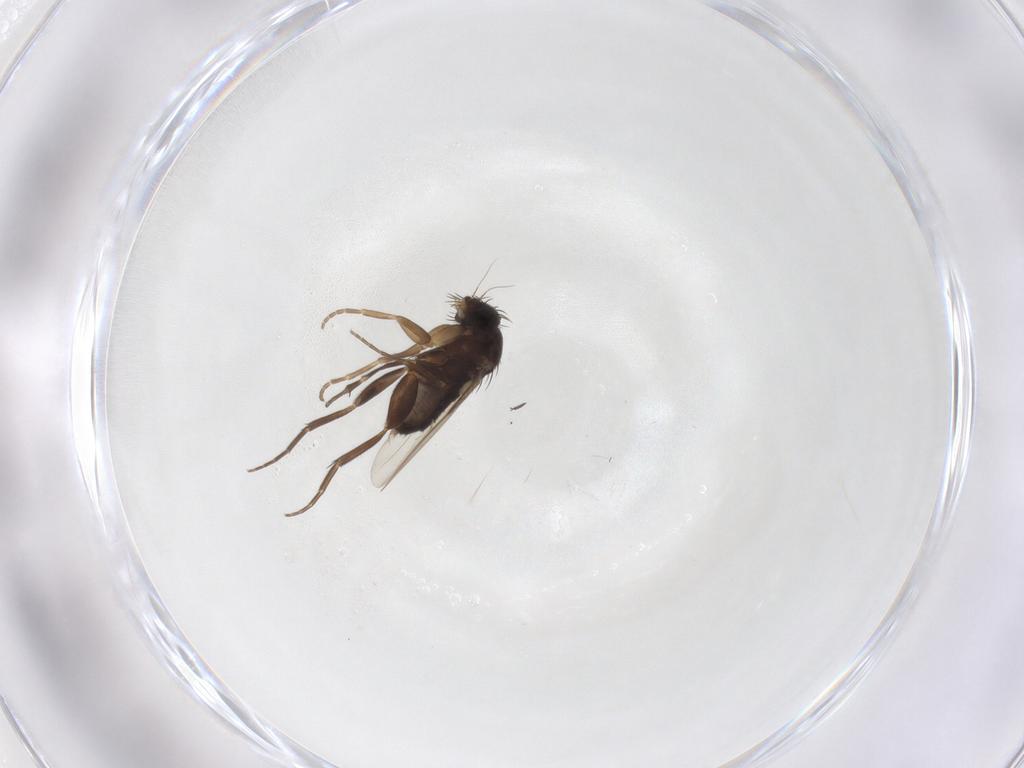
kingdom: Animalia
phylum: Arthropoda
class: Insecta
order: Diptera
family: Phoridae
